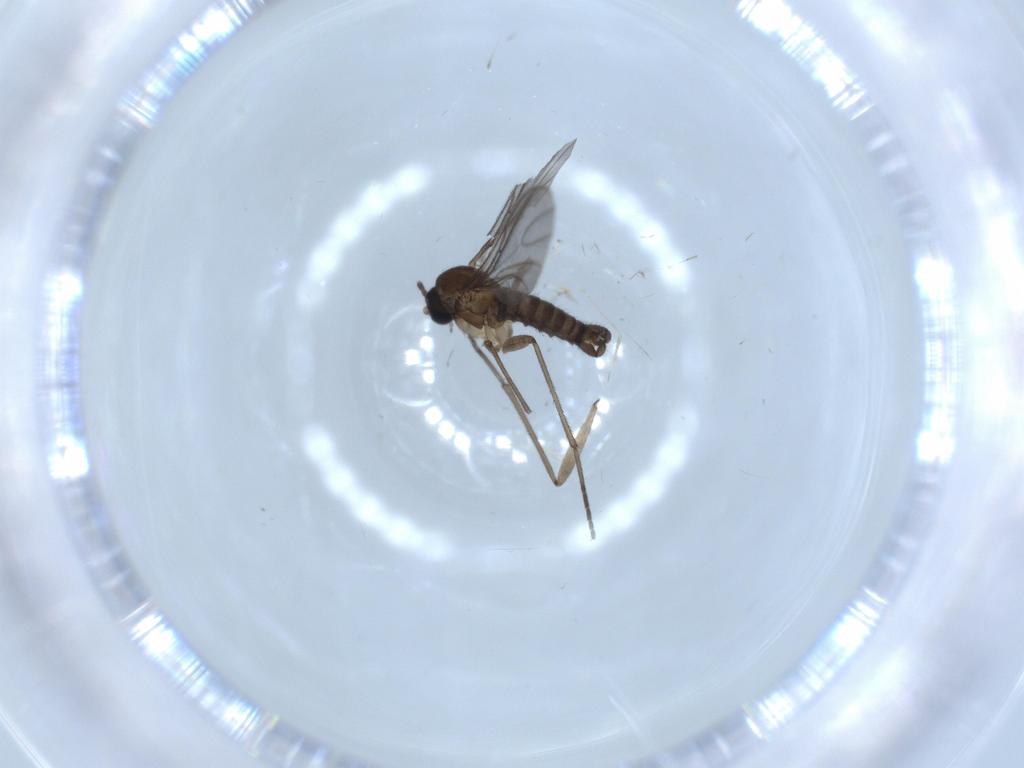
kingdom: Animalia
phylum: Arthropoda
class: Insecta
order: Diptera
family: Sciaridae
